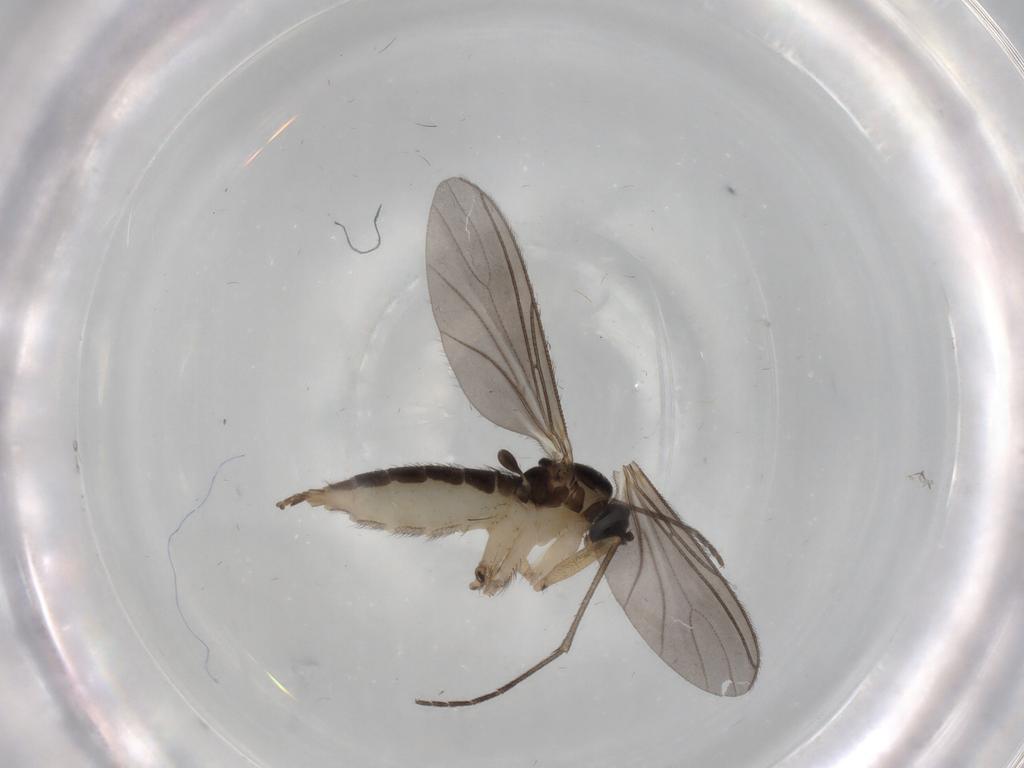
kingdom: Animalia
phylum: Arthropoda
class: Insecta
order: Diptera
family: Sciaridae
